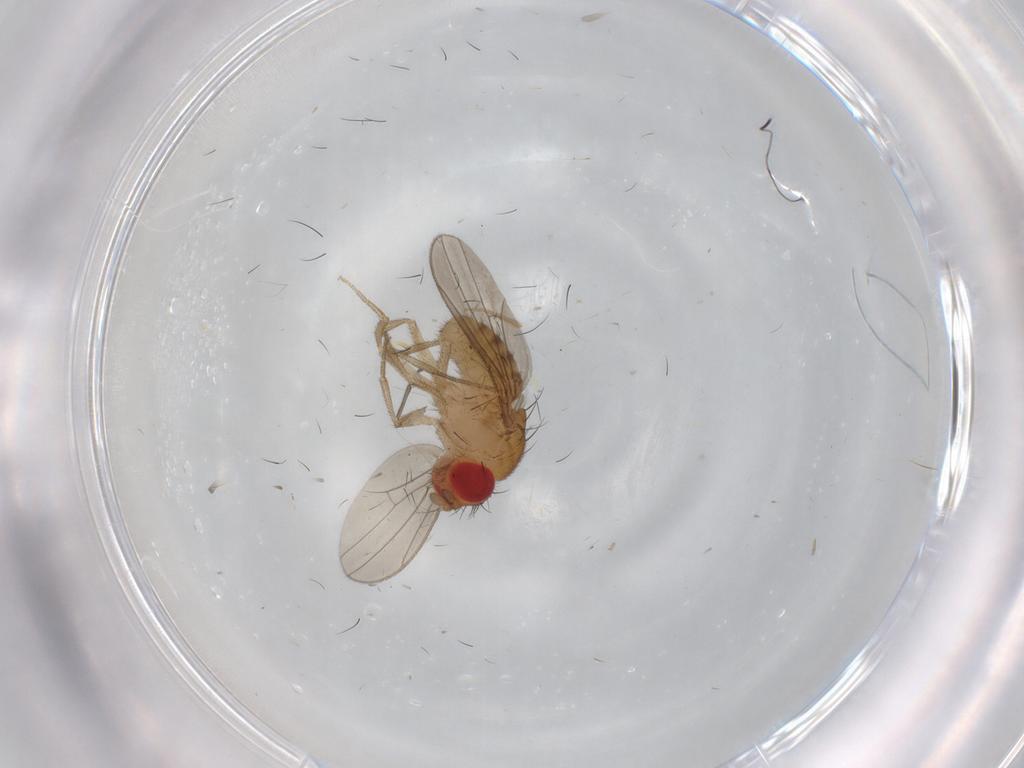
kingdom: Animalia
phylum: Arthropoda
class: Insecta
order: Diptera
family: Drosophilidae
